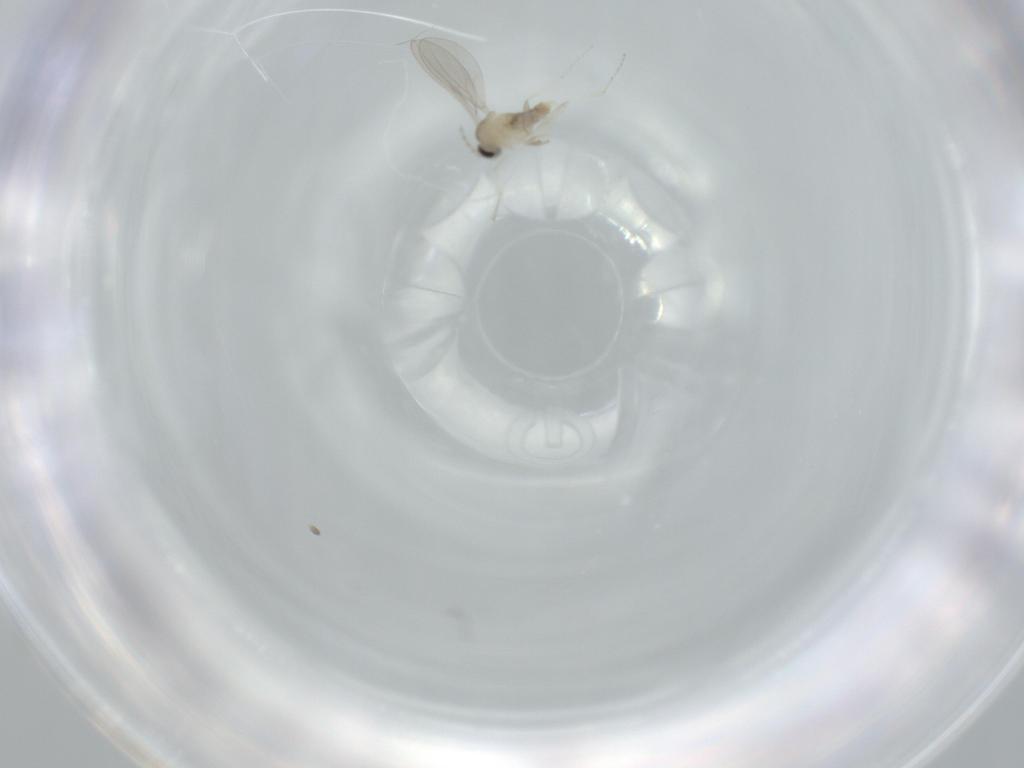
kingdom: Animalia
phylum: Arthropoda
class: Insecta
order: Diptera
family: Cecidomyiidae
